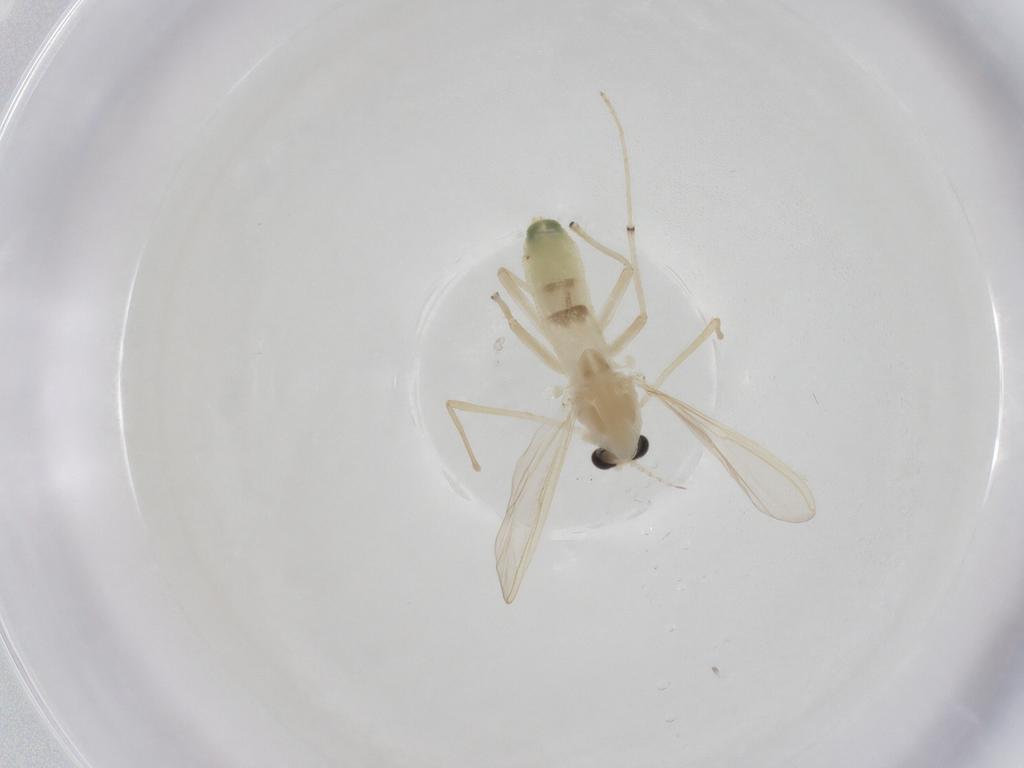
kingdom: Animalia
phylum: Arthropoda
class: Insecta
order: Diptera
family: Chironomidae
